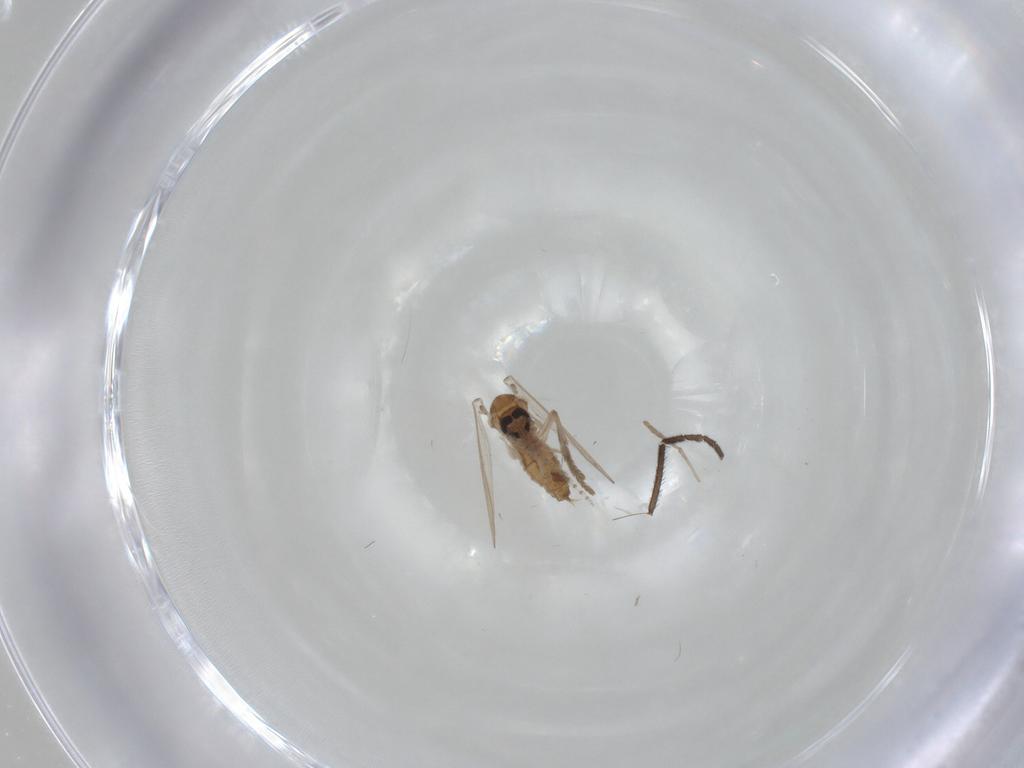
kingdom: Animalia
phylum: Arthropoda
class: Insecta
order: Diptera
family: Psychodidae
